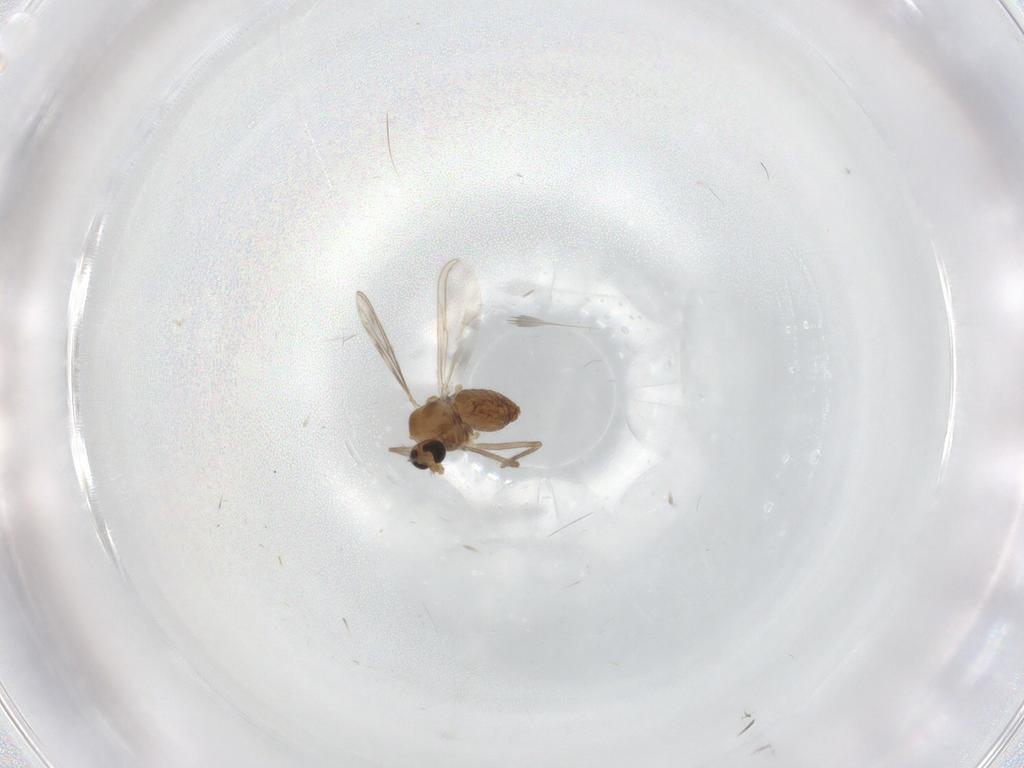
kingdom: Animalia
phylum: Arthropoda
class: Insecta
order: Diptera
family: Chironomidae
